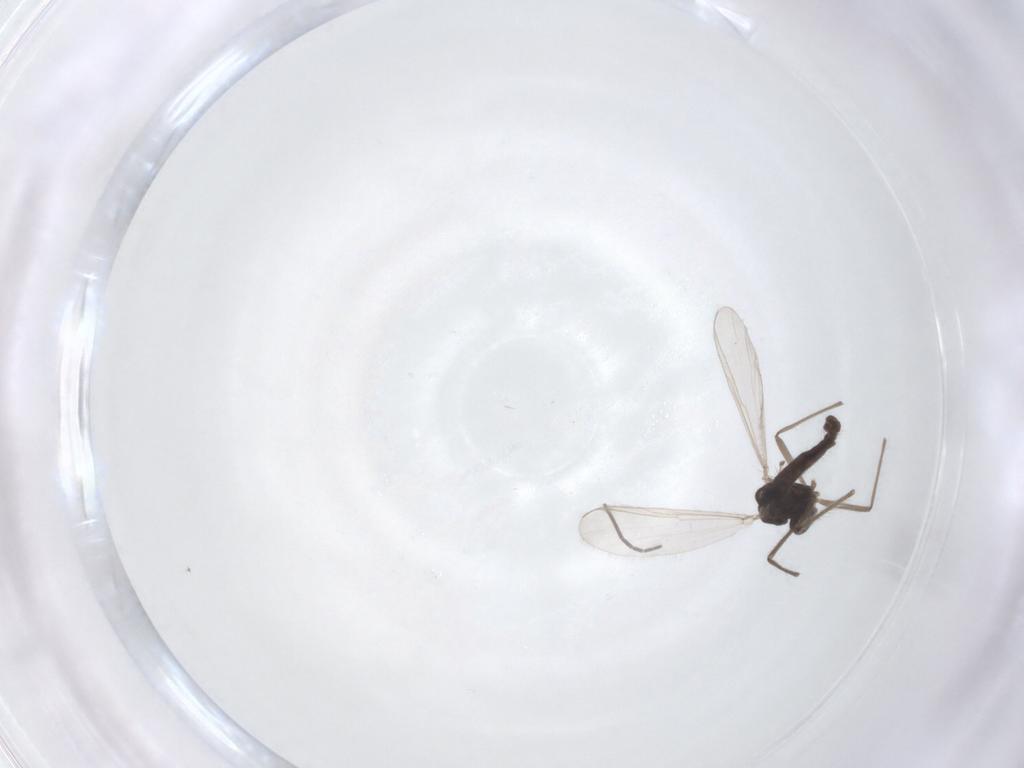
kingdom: Animalia
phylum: Arthropoda
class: Insecta
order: Diptera
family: Chironomidae
